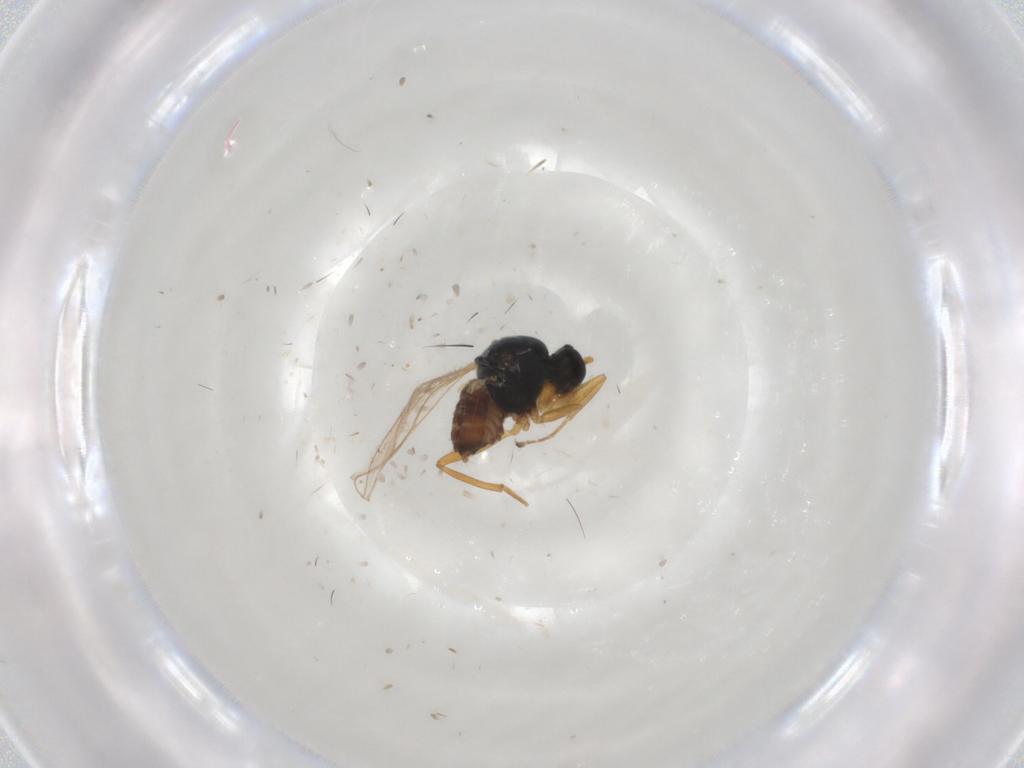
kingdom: Animalia
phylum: Arthropoda
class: Insecta
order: Diptera
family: Hybotidae
